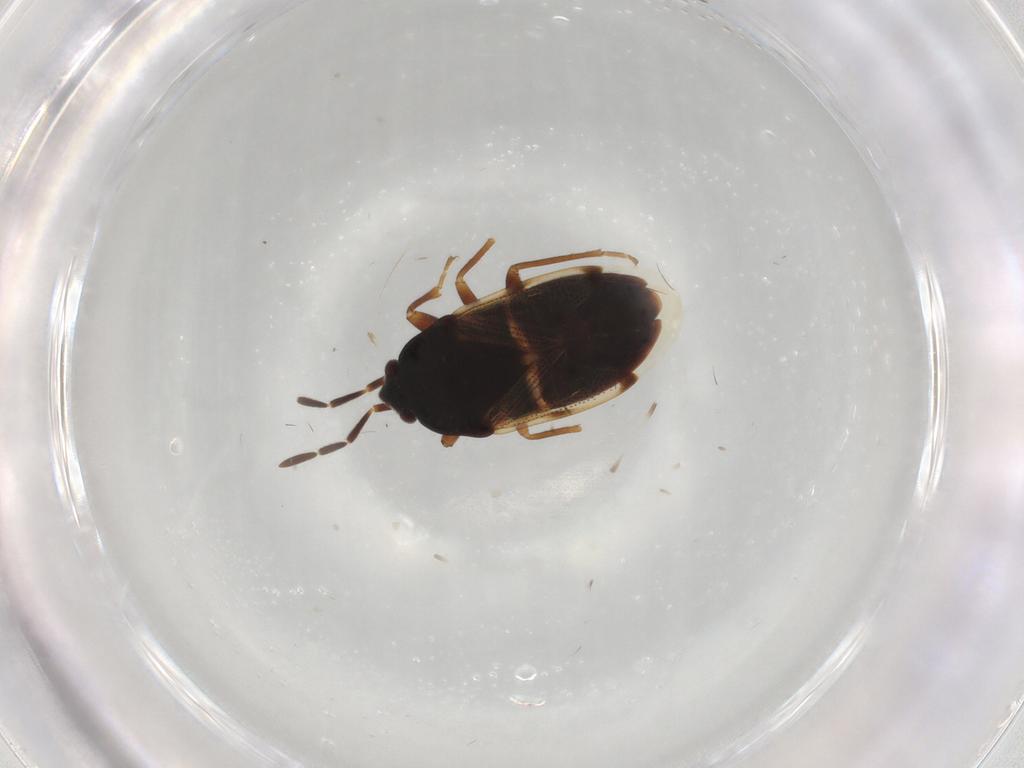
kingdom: Animalia
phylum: Arthropoda
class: Insecta
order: Hemiptera
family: Rhyparochromidae
